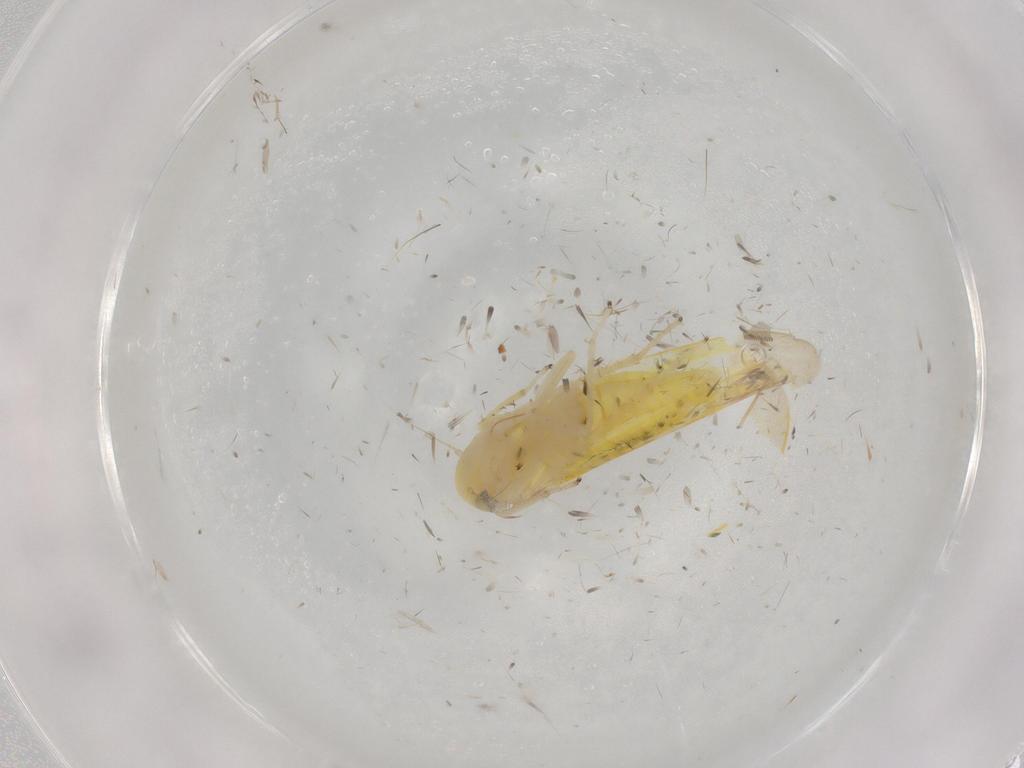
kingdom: Animalia
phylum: Arthropoda
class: Insecta
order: Hemiptera
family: Cicadellidae
